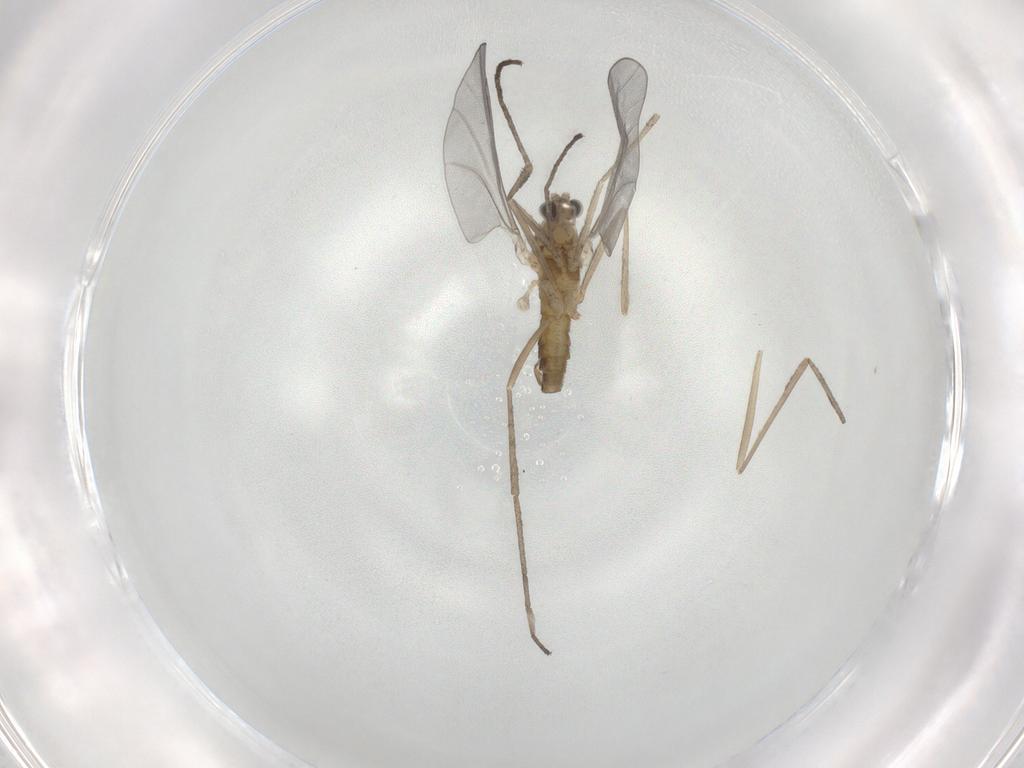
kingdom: Animalia
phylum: Arthropoda
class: Insecta
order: Diptera
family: Cecidomyiidae
